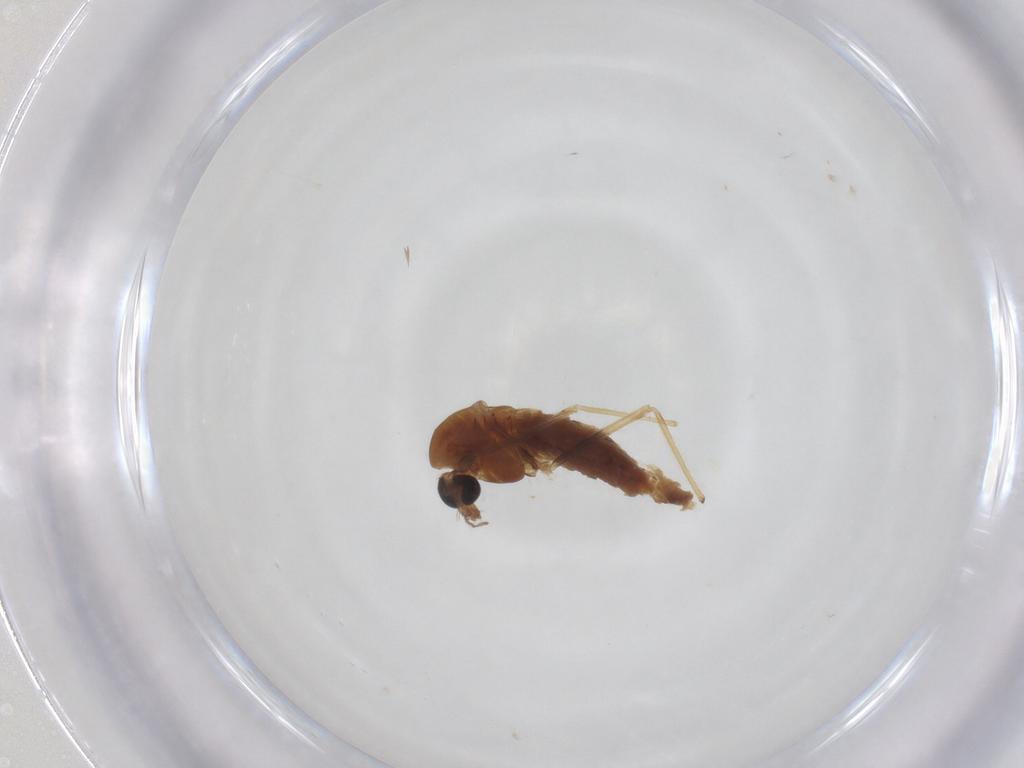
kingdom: Animalia
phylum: Arthropoda
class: Insecta
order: Diptera
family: Chironomidae
